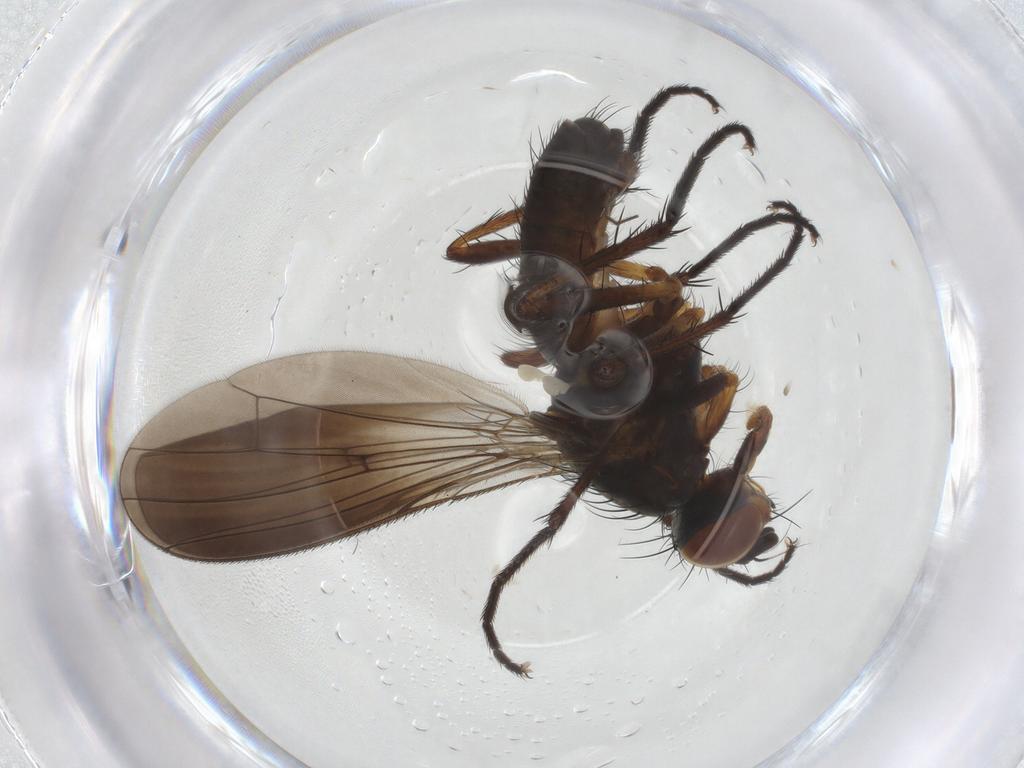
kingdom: Animalia
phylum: Arthropoda
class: Insecta
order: Diptera
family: Anthomyiidae
